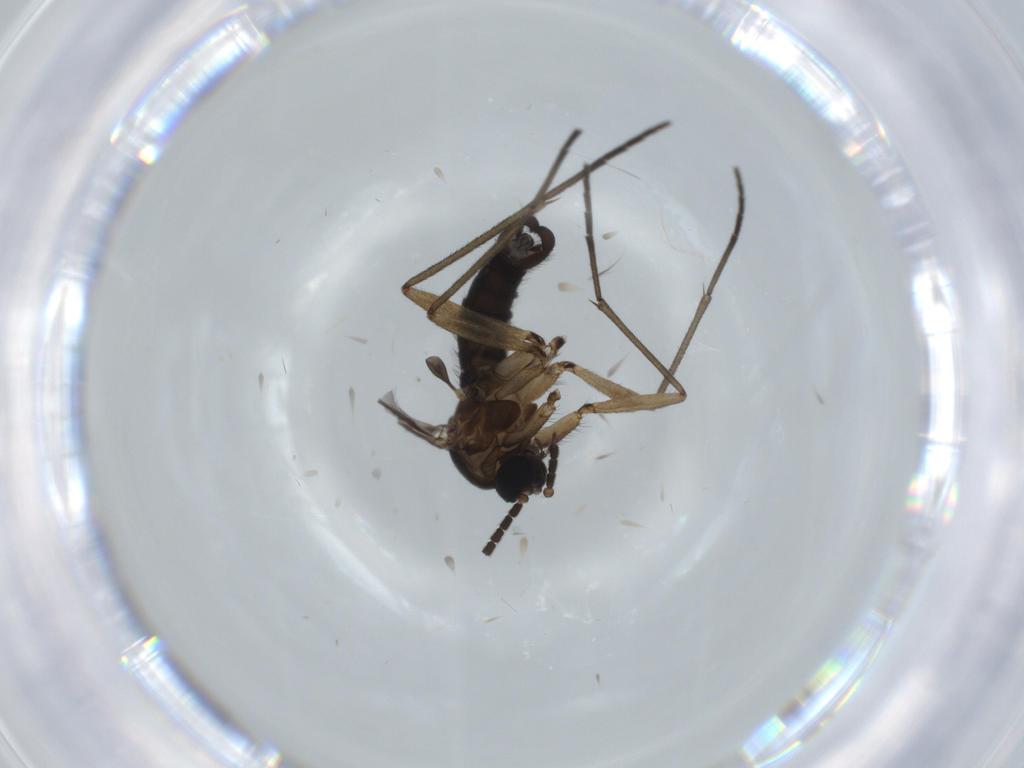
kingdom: Animalia
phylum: Arthropoda
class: Insecta
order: Diptera
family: Sciaridae
